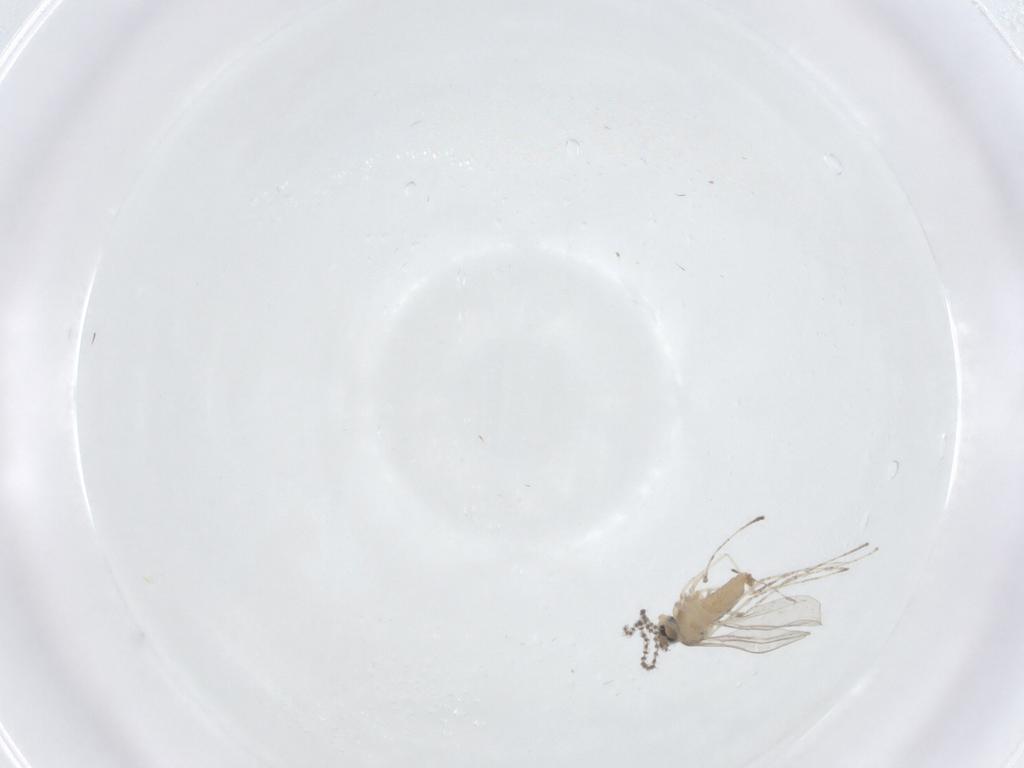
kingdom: Animalia
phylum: Arthropoda
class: Insecta
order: Diptera
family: Cecidomyiidae
